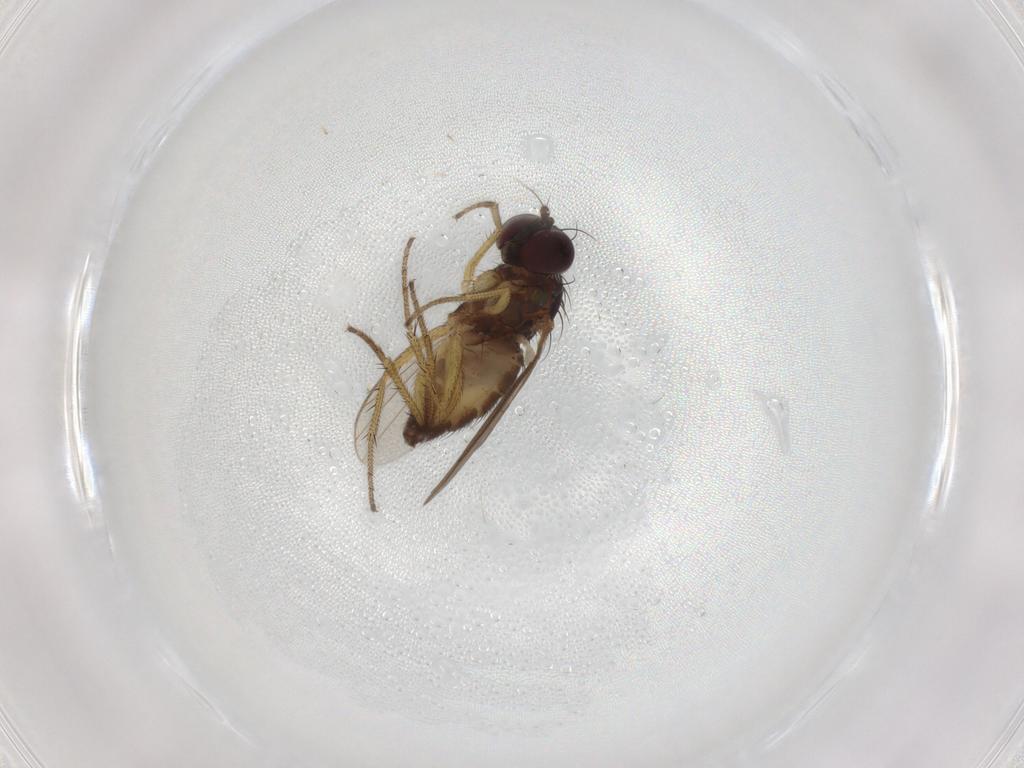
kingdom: Animalia
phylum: Arthropoda
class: Insecta
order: Diptera
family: Dolichopodidae
